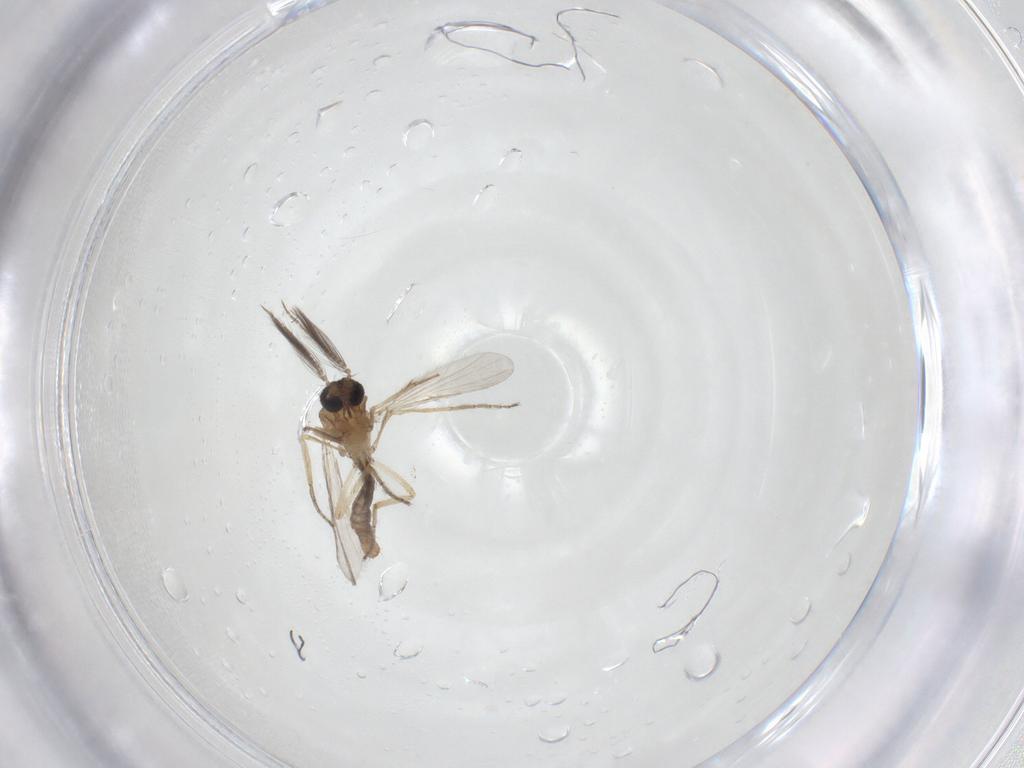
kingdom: Animalia
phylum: Arthropoda
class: Insecta
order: Diptera
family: Ceratopogonidae
